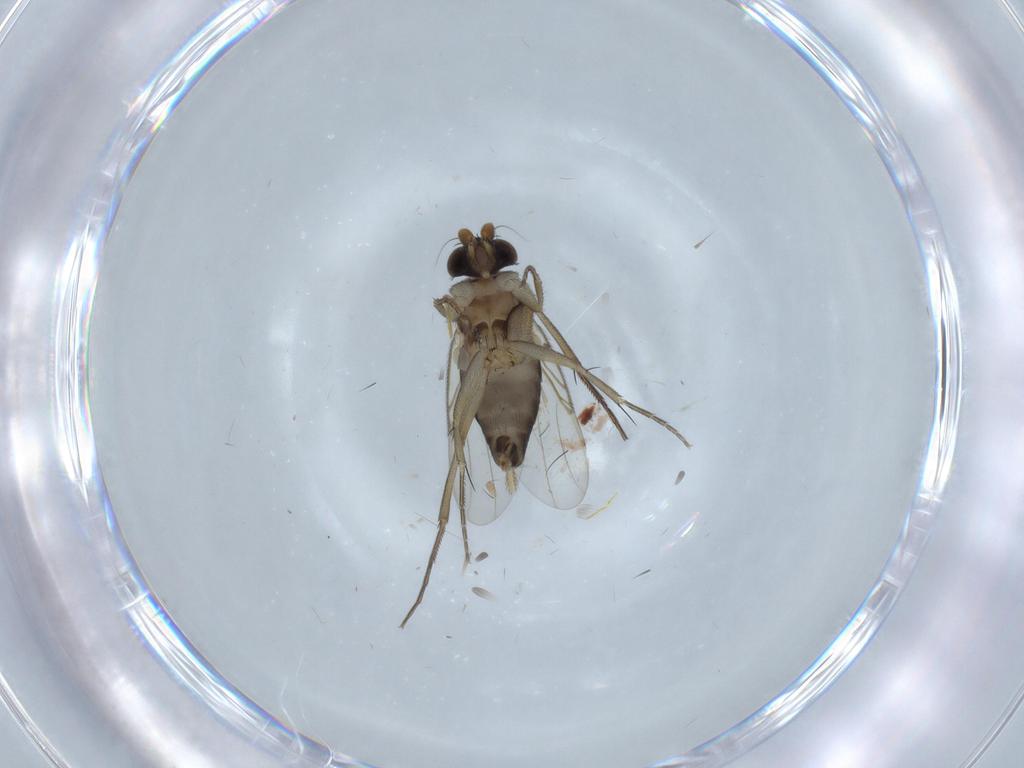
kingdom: Animalia
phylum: Arthropoda
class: Insecta
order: Diptera
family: Phoridae
